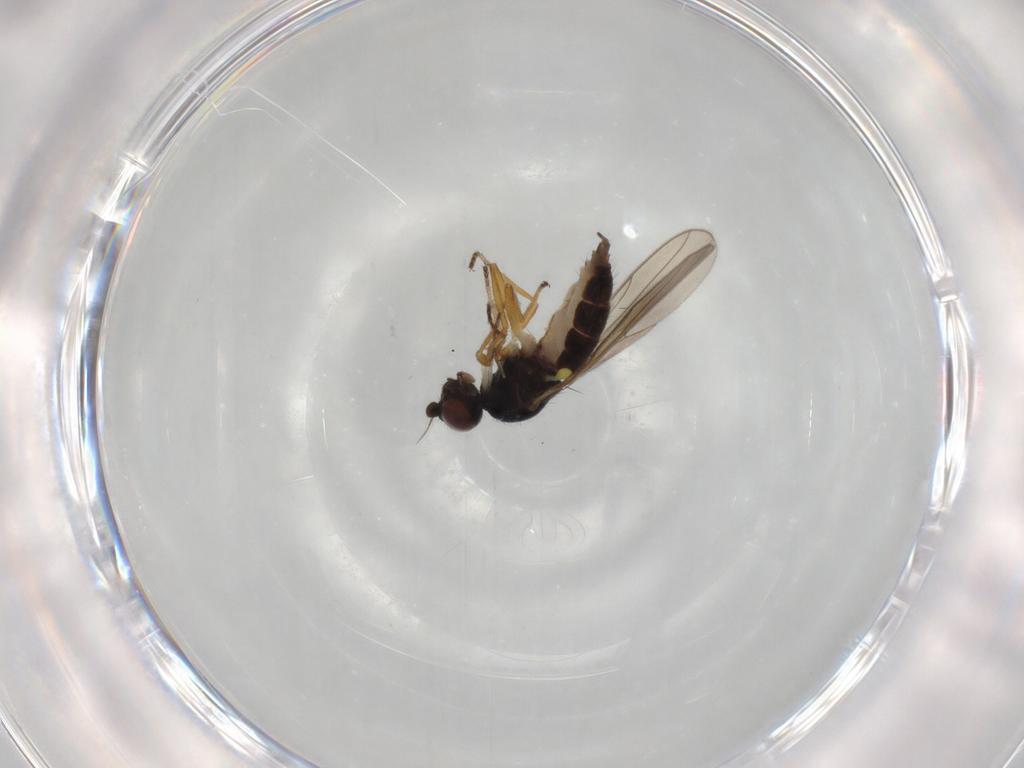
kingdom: Animalia
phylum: Arthropoda
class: Insecta
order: Diptera
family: Chloropidae
